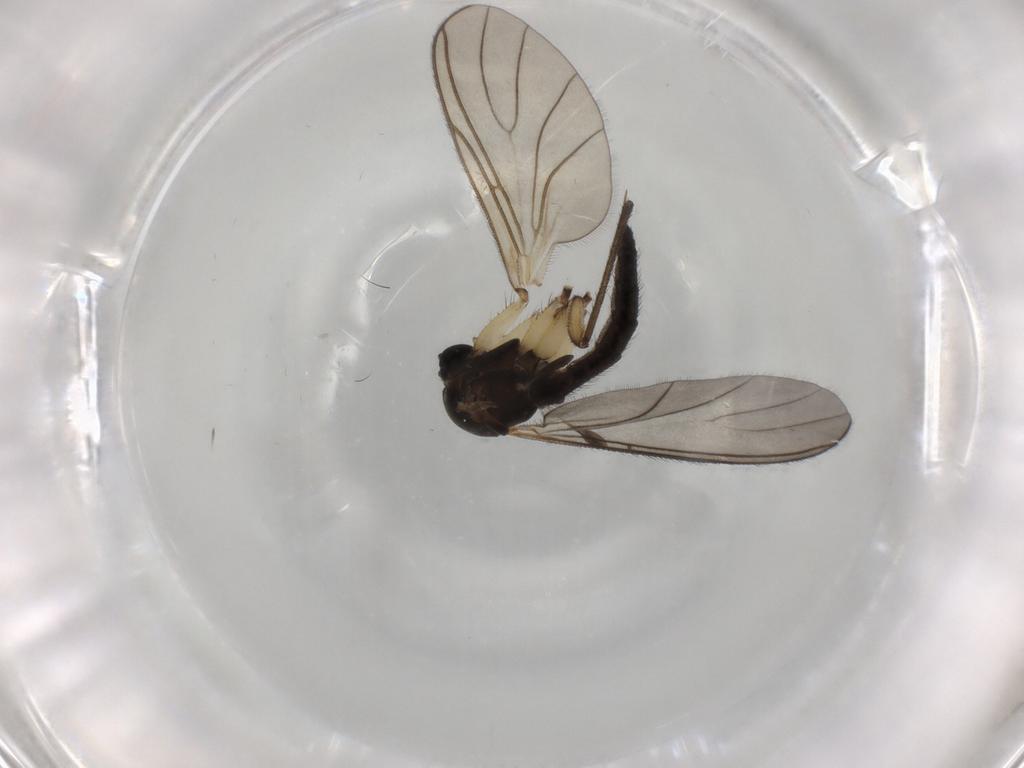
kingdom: Animalia
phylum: Arthropoda
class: Insecta
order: Diptera
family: Sciaridae
